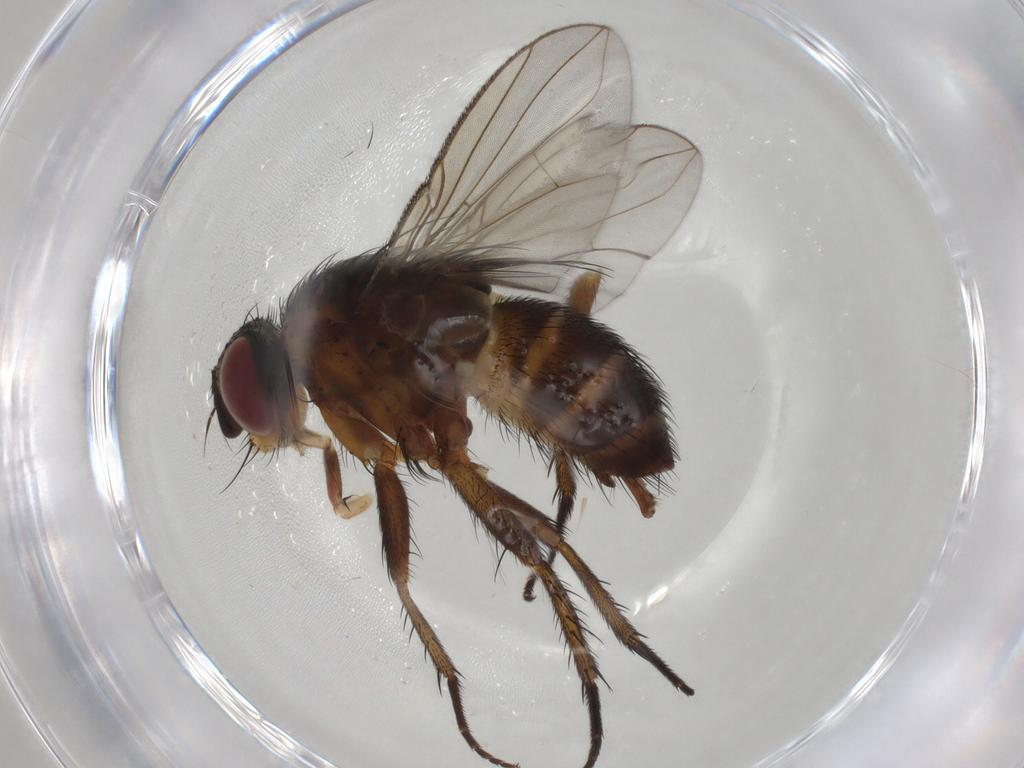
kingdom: Animalia
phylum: Arthropoda
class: Insecta
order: Diptera
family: Tachinidae
